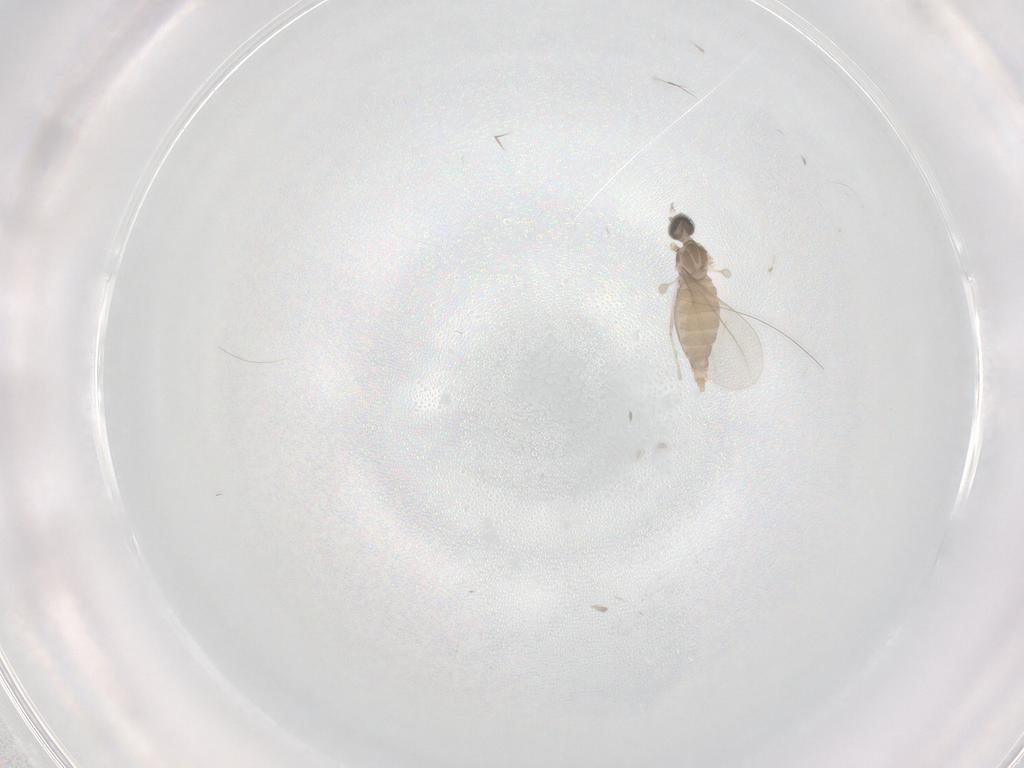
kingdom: Animalia
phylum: Arthropoda
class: Insecta
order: Diptera
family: Cecidomyiidae
